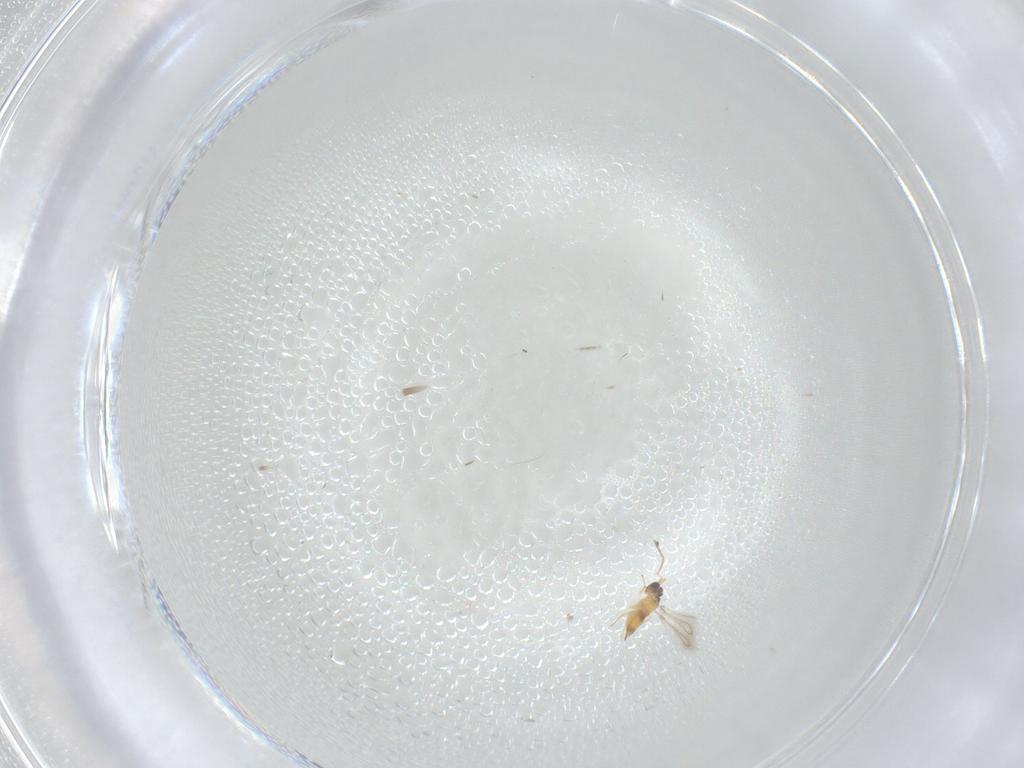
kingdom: Animalia
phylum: Arthropoda
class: Insecta
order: Hymenoptera
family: Mymaridae
